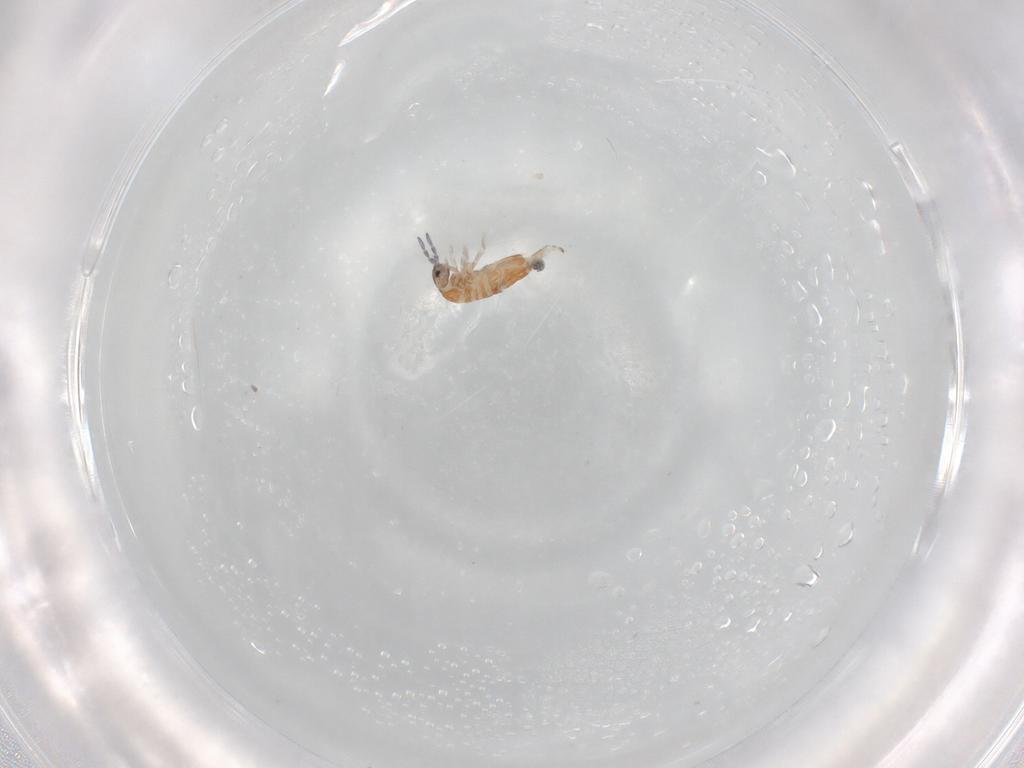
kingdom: Animalia
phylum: Arthropoda
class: Collembola
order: Entomobryomorpha
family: Entomobryidae
